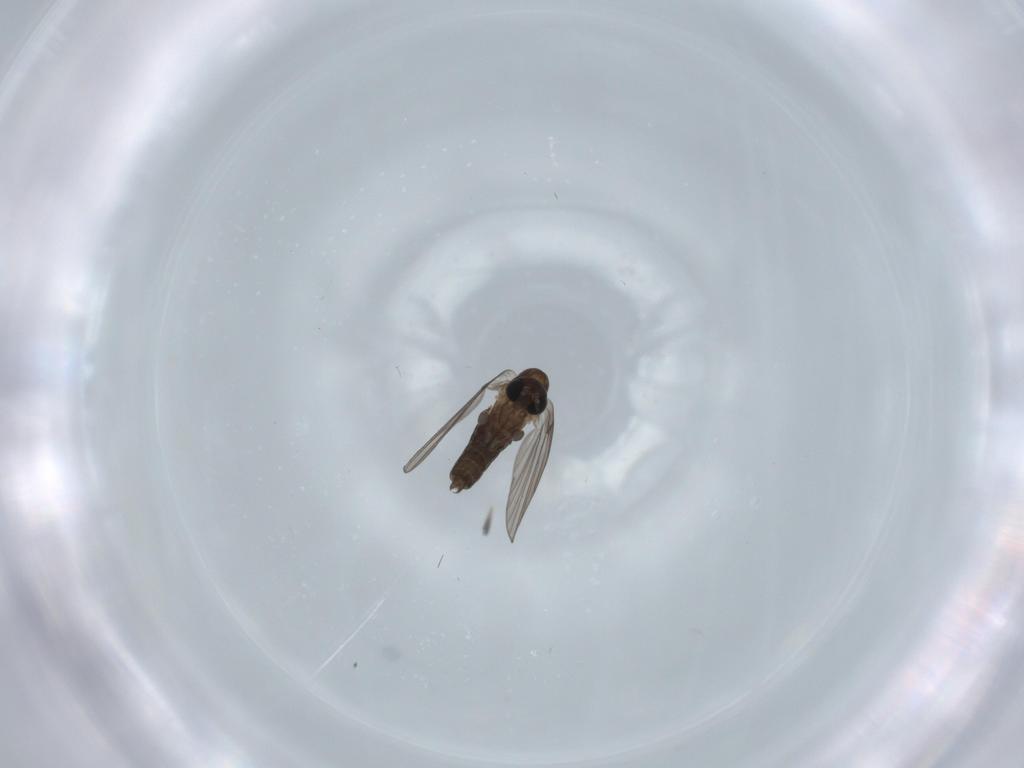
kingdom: Animalia
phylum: Arthropoda
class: Insecta
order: Diptera
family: Psychodidae
